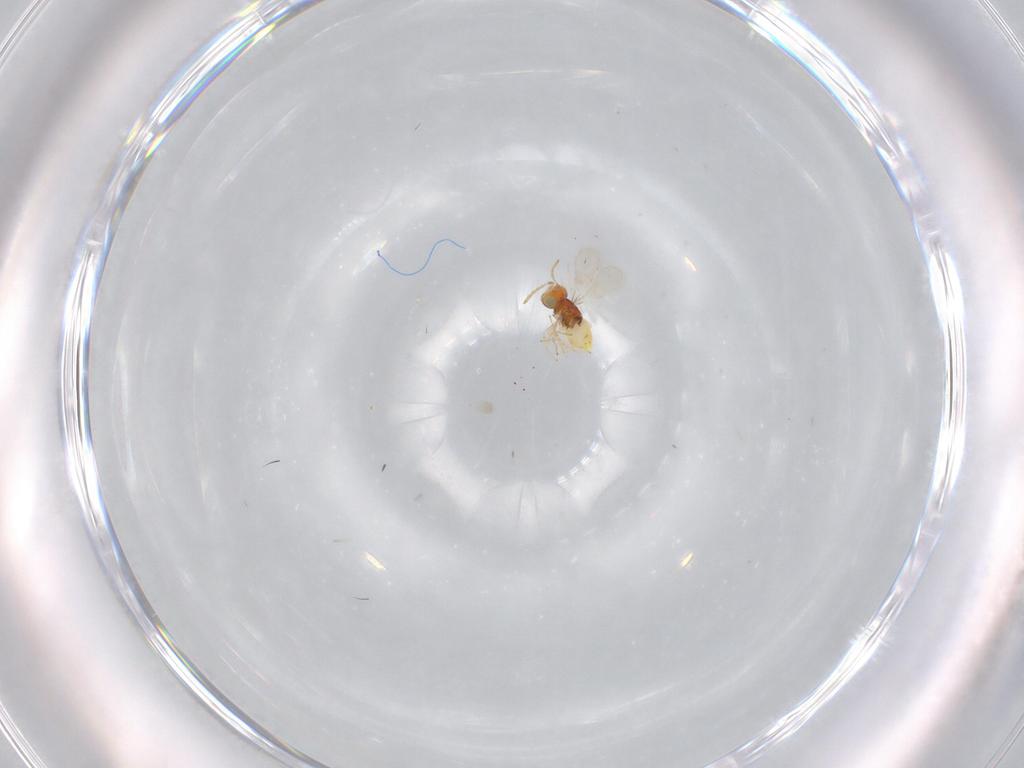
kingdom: Animalia
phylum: Arthropoda
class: Insecta
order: Hymenoptera
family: Aphelinidae
